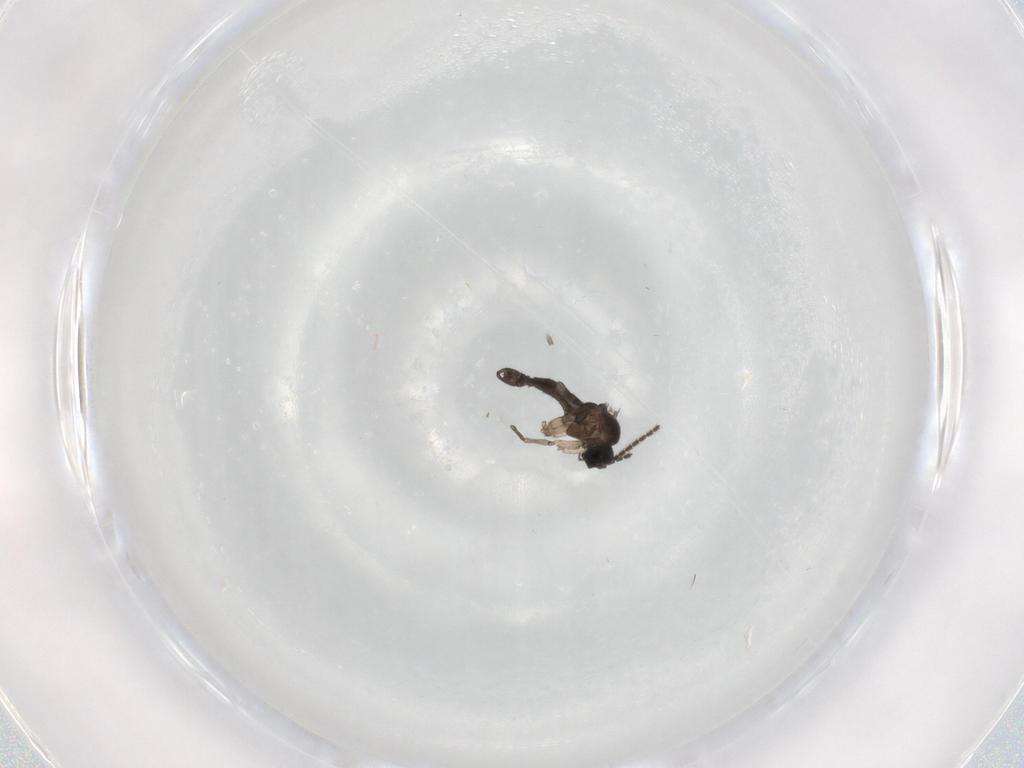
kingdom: Animalia
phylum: Arthropoda
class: Insecta
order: Diptera
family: Sciaridae
